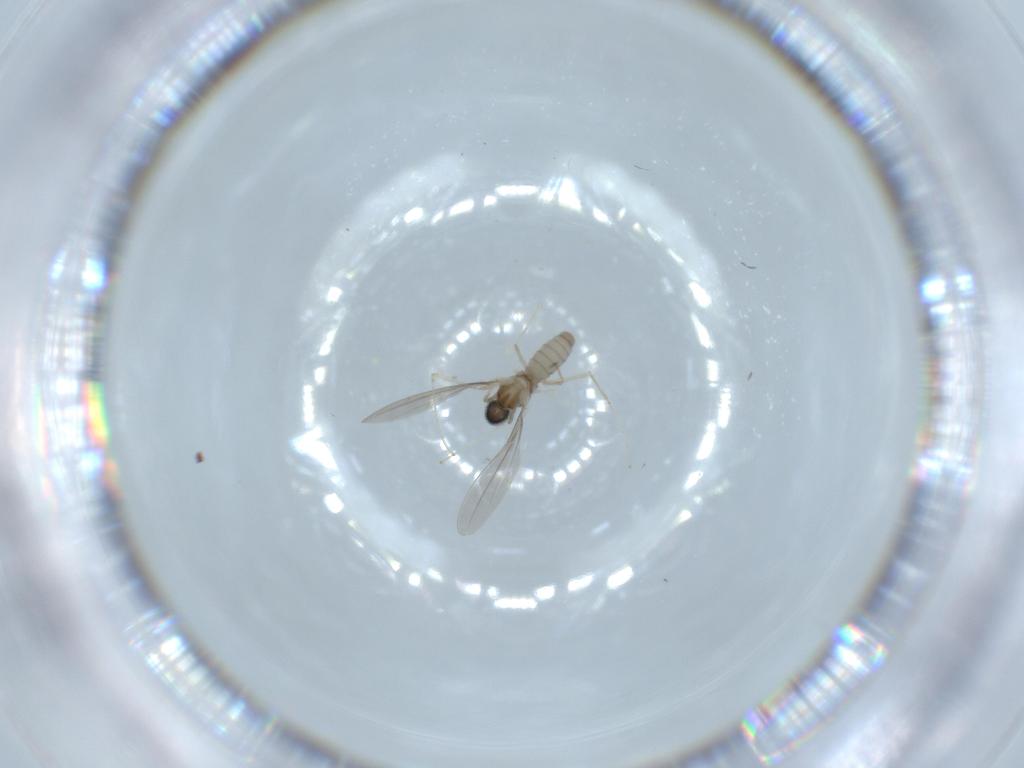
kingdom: Animalia
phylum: Arthropoda
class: Insecta
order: Diptera
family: Cecidomyiidae
